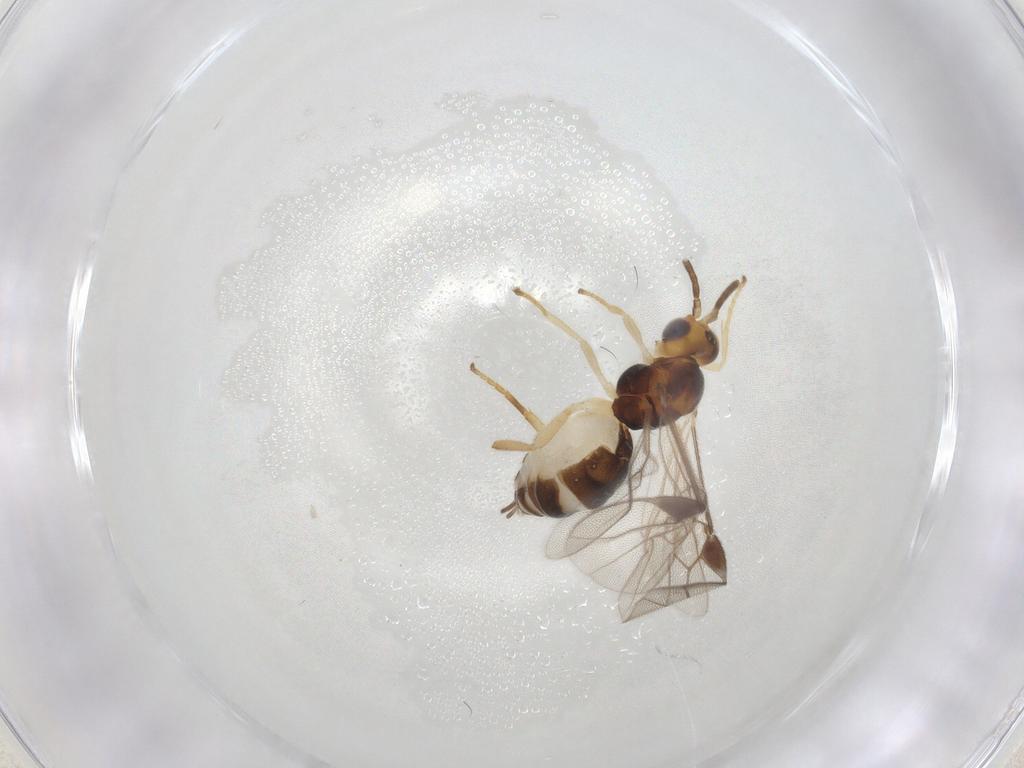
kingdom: Animalia
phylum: Arthropoda
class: Insecta
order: Hymenoptera
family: Braconidae
